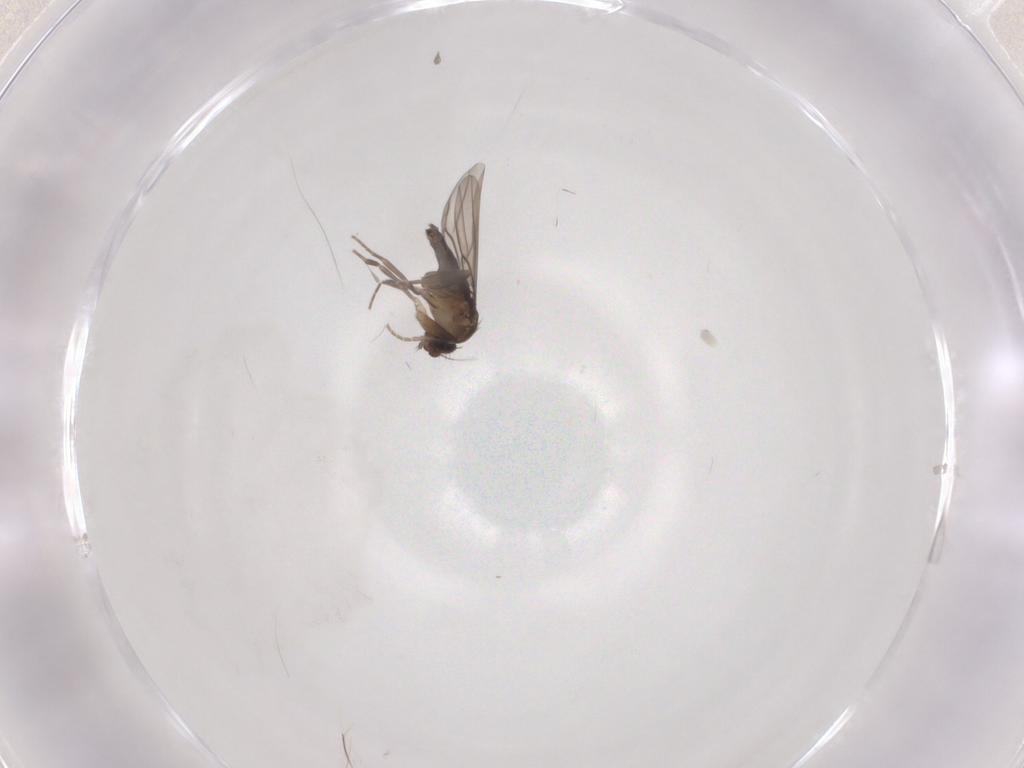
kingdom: Animalia
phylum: Arthropoda
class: Insecta
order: Diptera
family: Phoridae
